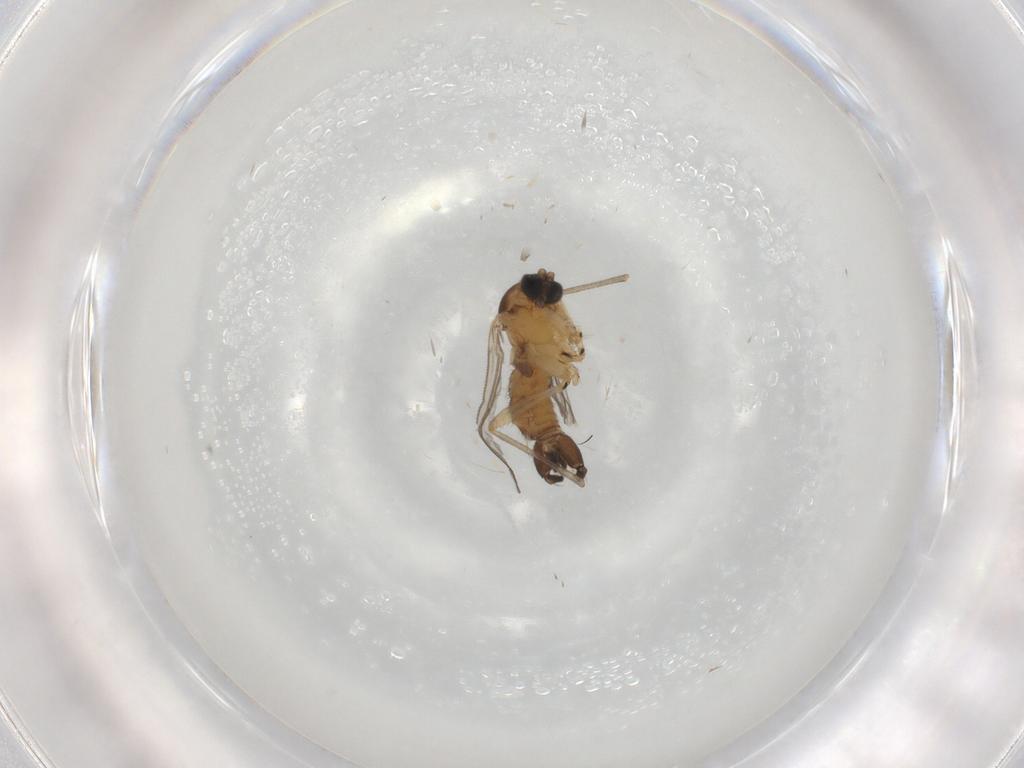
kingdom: Animalia
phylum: Arthropoda
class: Insecta
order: Diptera
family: Sciaridae
